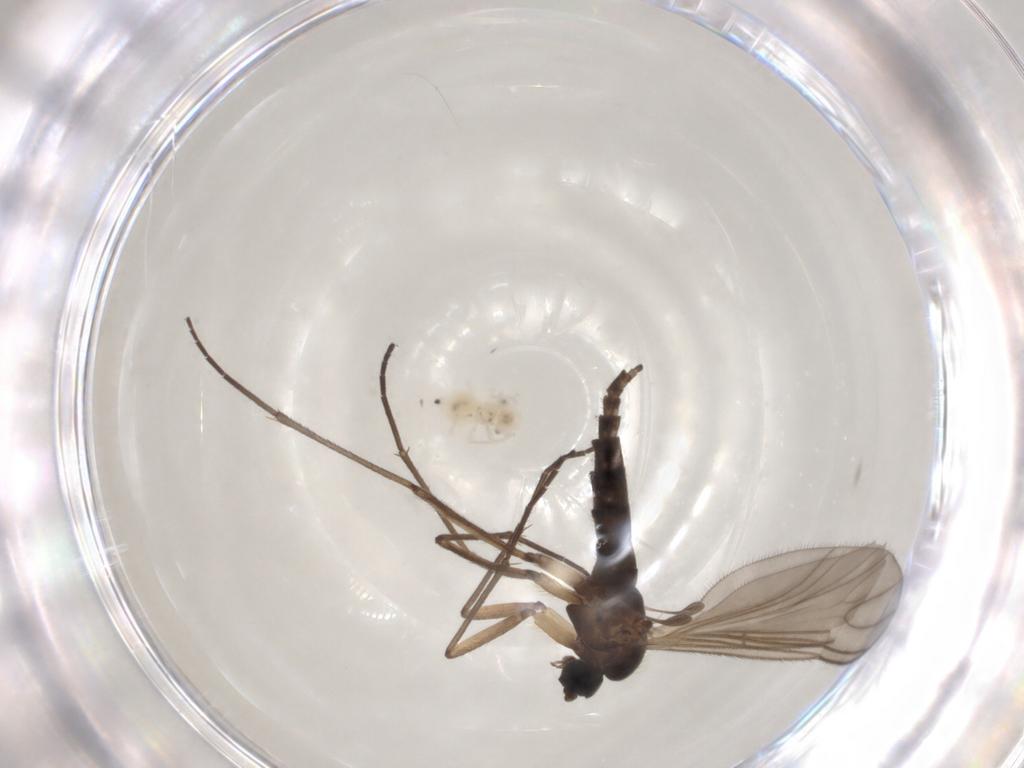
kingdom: Animalia
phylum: Arthropoda
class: Insecta
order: Diptera
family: Sciaridae
